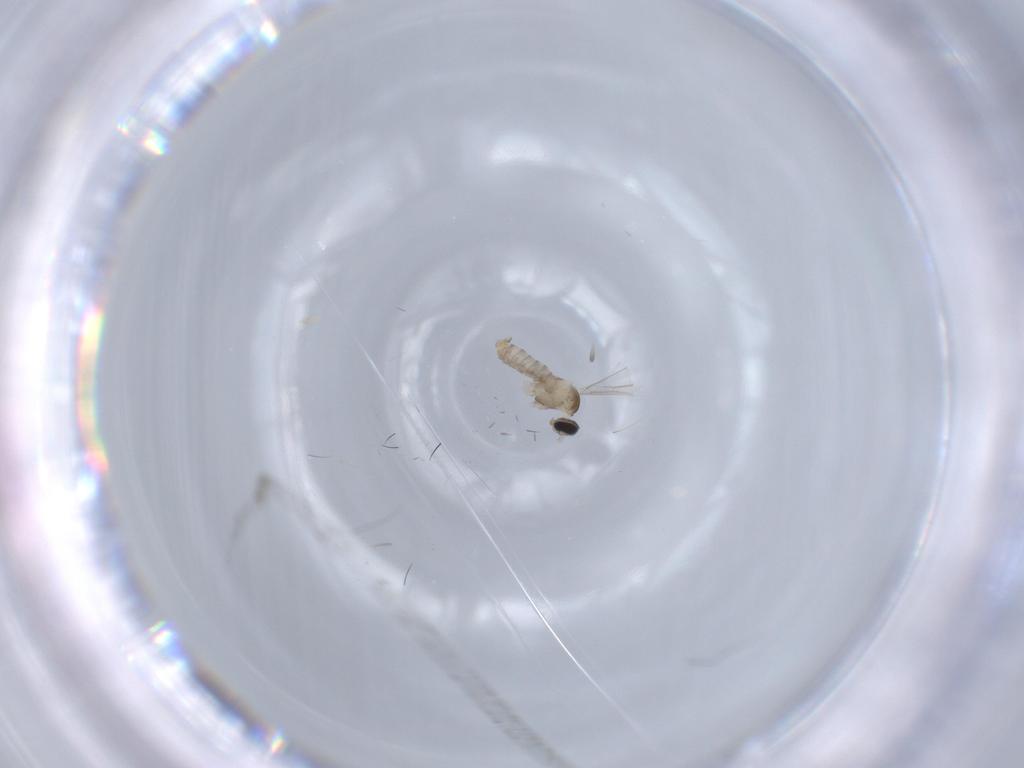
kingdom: Animalia
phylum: Arthropoda
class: Insecta
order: Diptera
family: Cecidomyiidae
